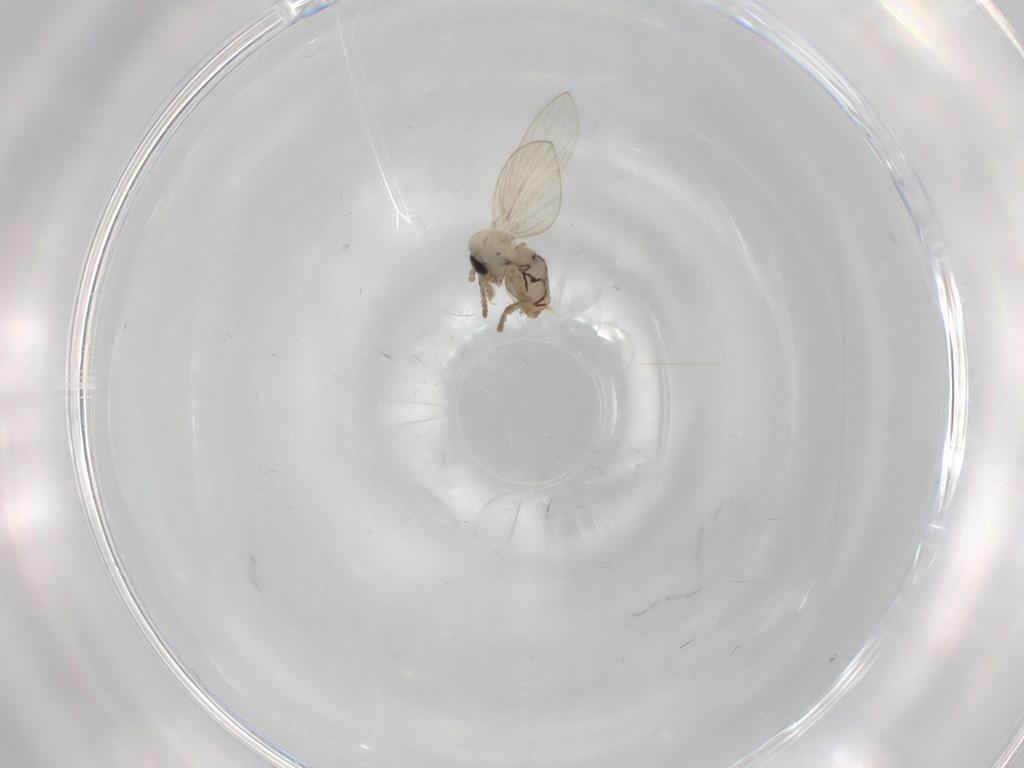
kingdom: Animalia
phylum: Arthropoda
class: Insecta
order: Diptera
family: Psychodidae
